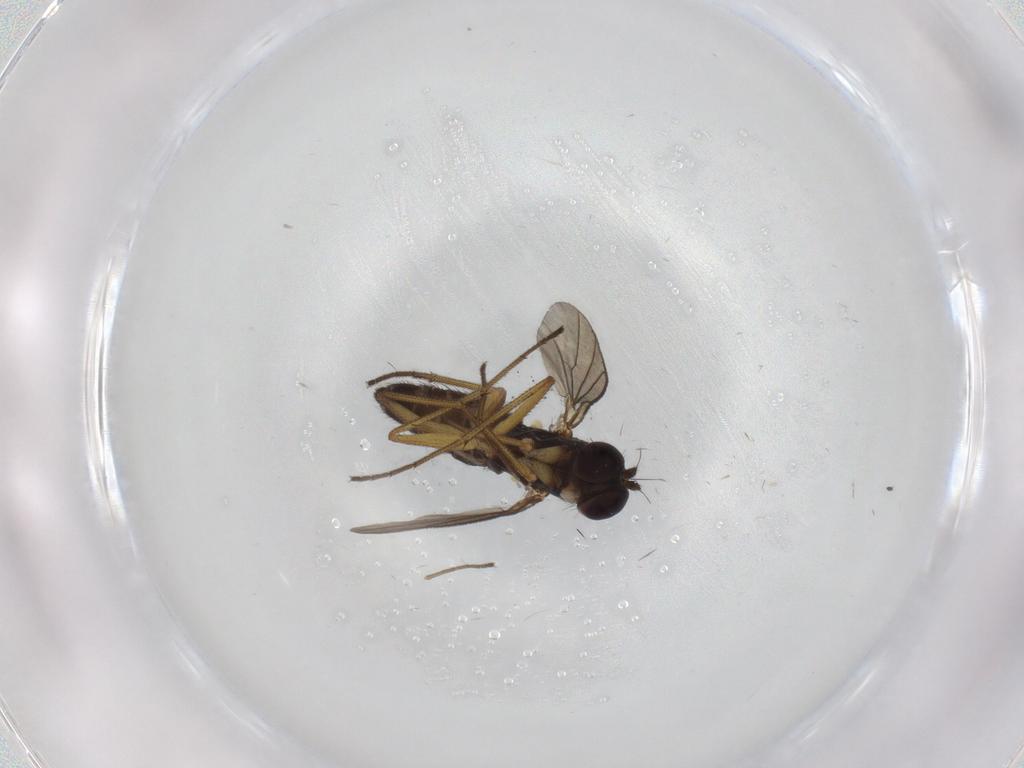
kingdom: Animalia
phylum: Arthropoda
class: Insecta
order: Diptera
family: Dolichopodidae
